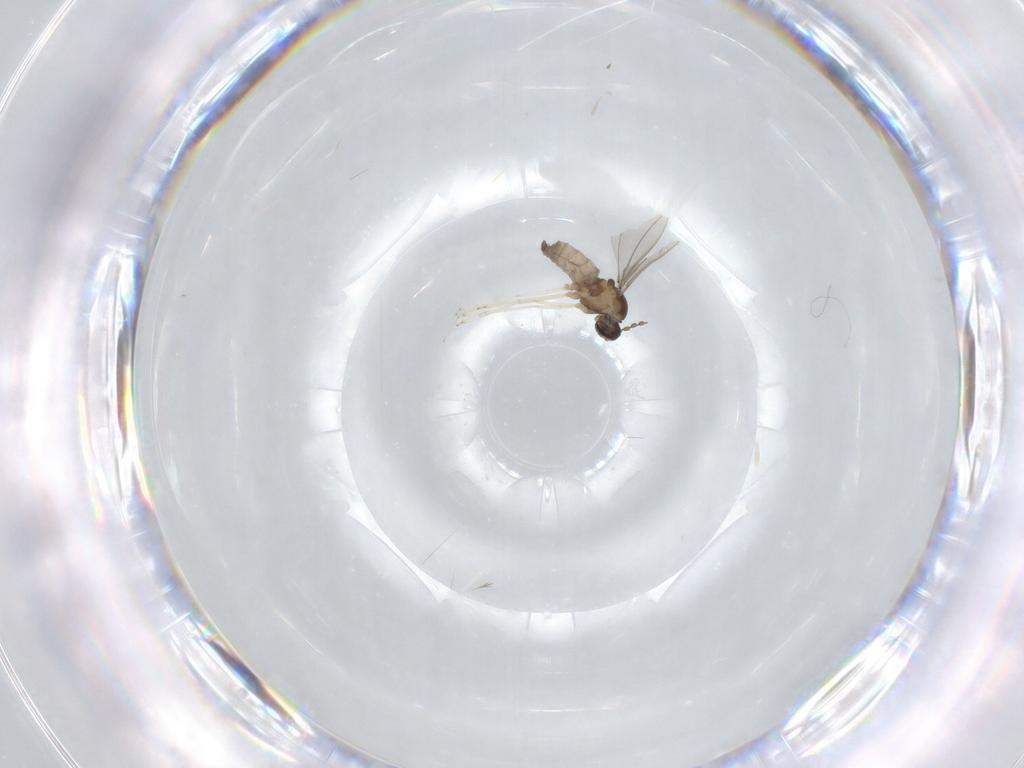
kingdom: Animalia
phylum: Arthropoda
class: Insecta
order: Diptera
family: Cecidomyiidae
